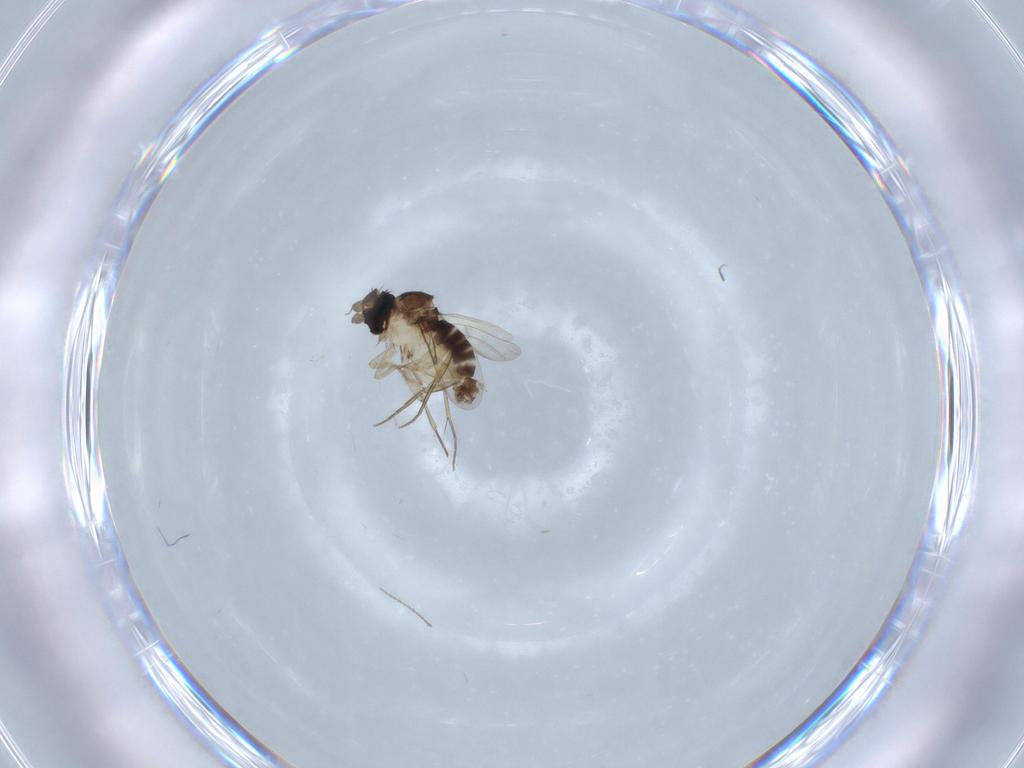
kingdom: Animalia
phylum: Arthropoda
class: Insecta
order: Diptera
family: Phoridae
